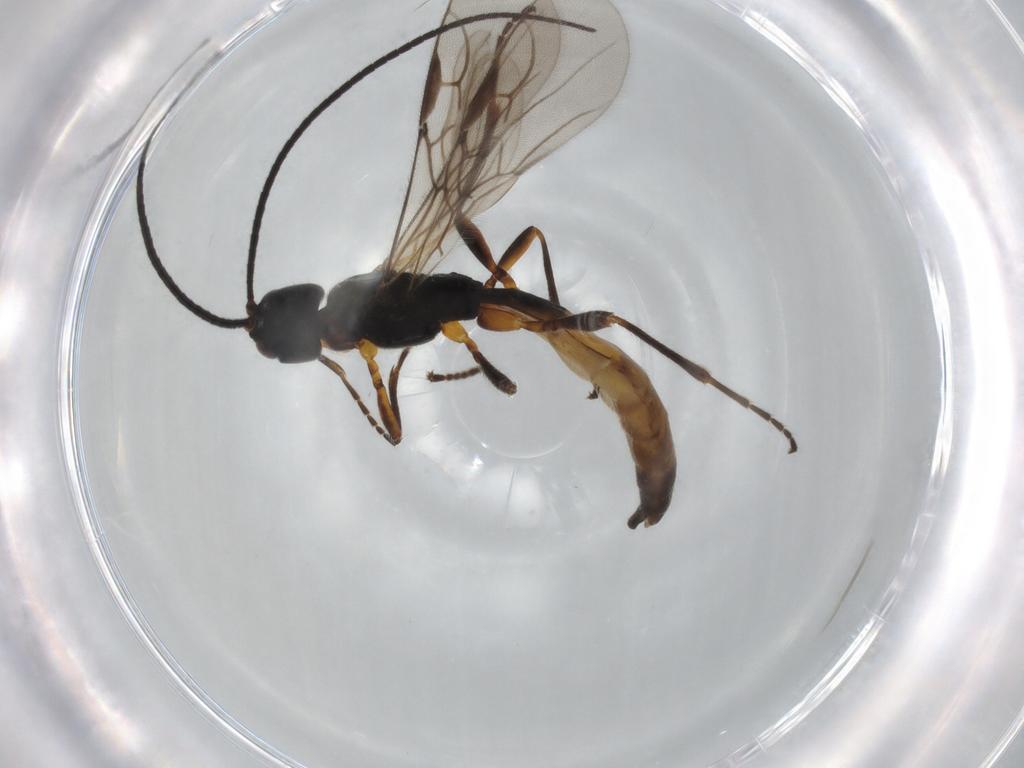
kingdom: Animalia
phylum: Arthropoda
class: Insecta
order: Hymenoptera
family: Braconidae
